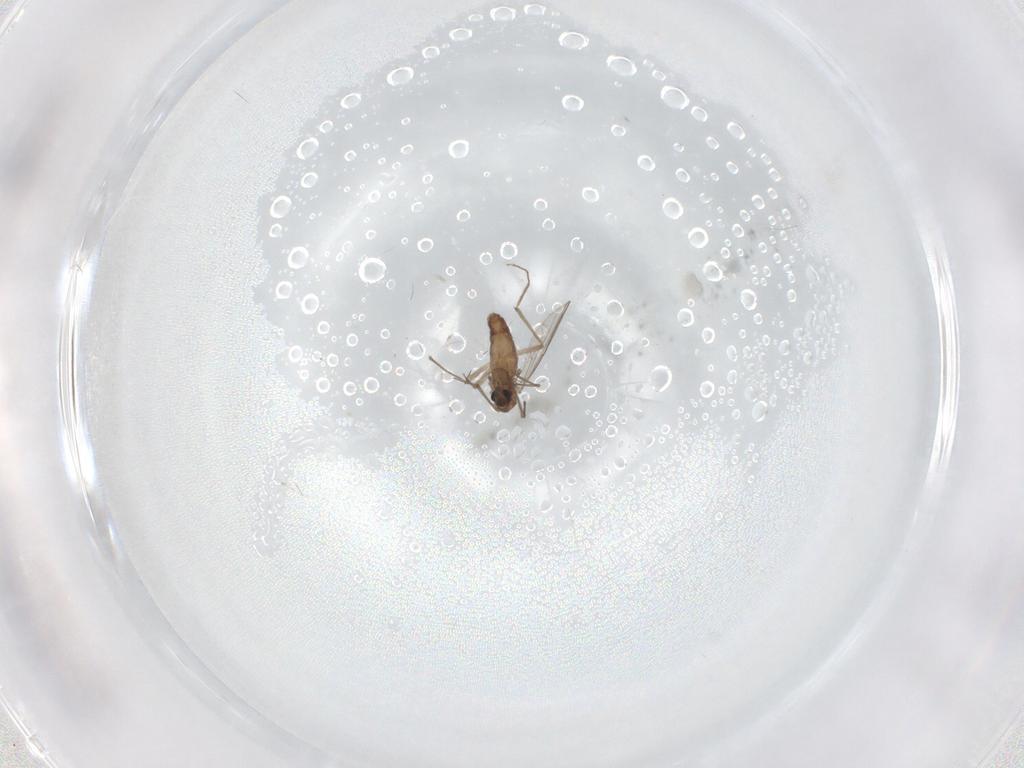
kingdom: Animalia
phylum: Arthropoda
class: Insecta
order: Diptera
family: Chironomidae
